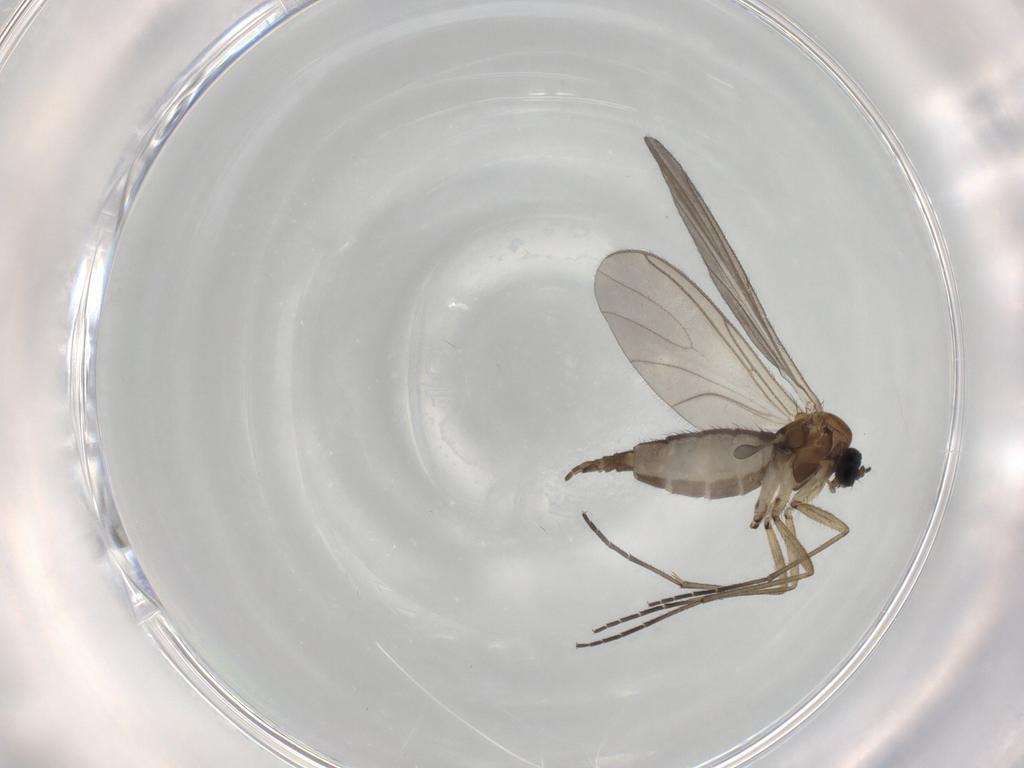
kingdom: Animalia
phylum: Arthropoda
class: Insecta
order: Diptera
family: Sciaridae
